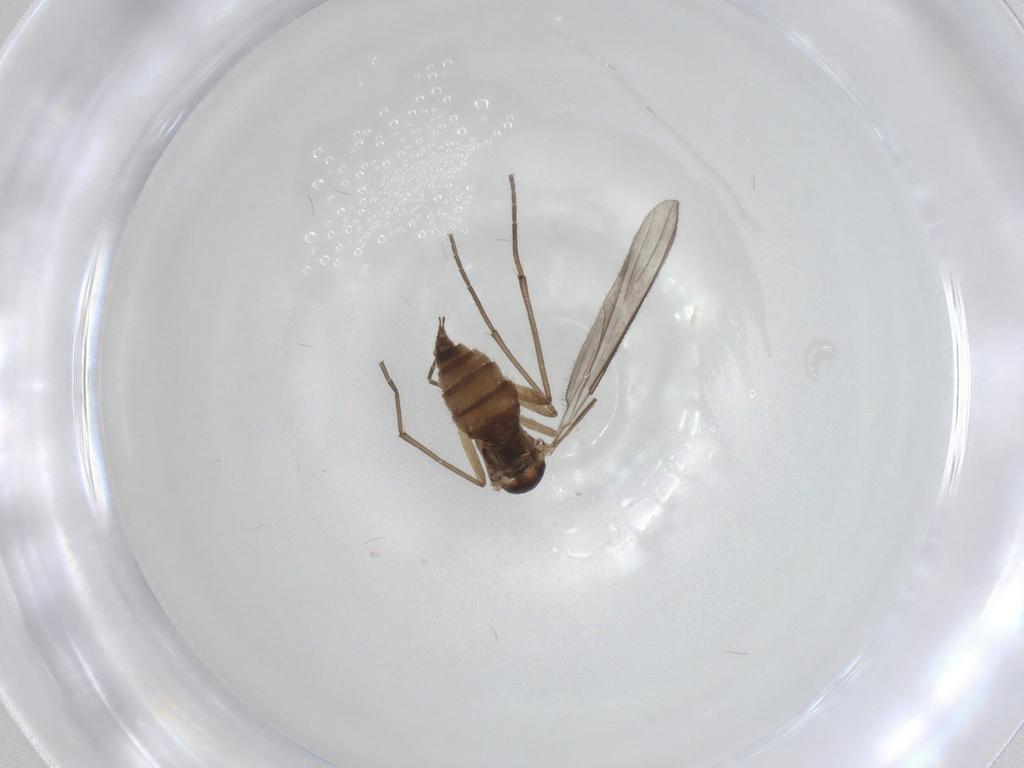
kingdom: Animalia
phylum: Arthropoda
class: Insecta
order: Diptera
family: Sciaridae
